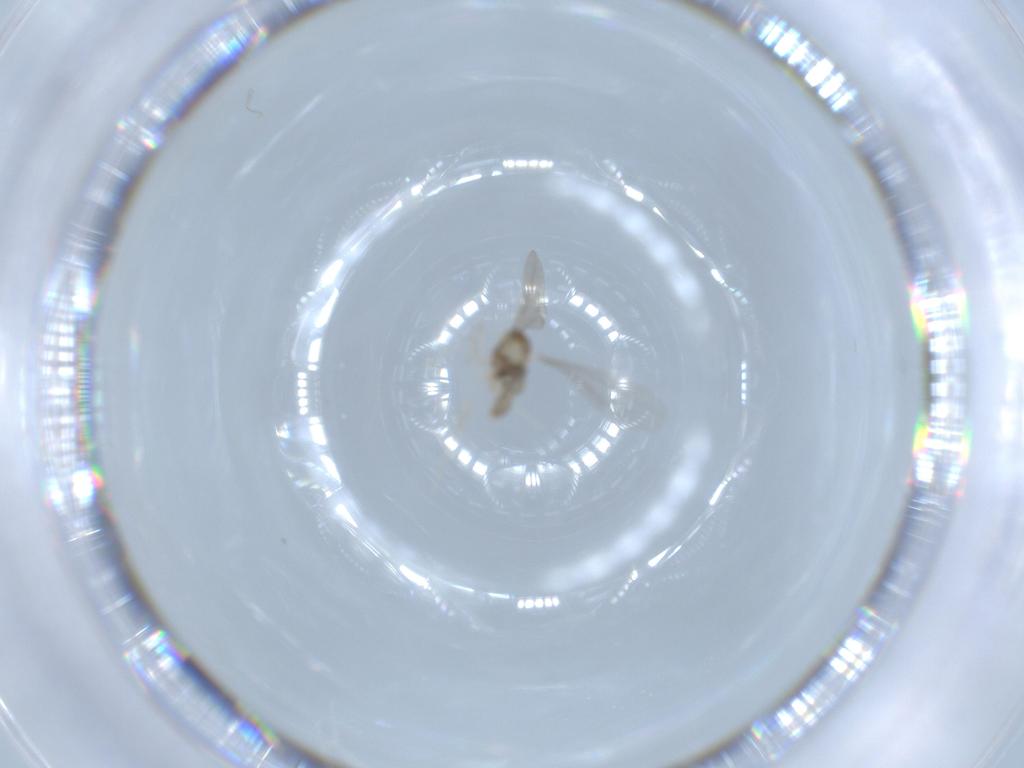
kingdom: Animalia
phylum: Arthropoda
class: Insecta
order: Diptera
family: Cecidomyiidae
